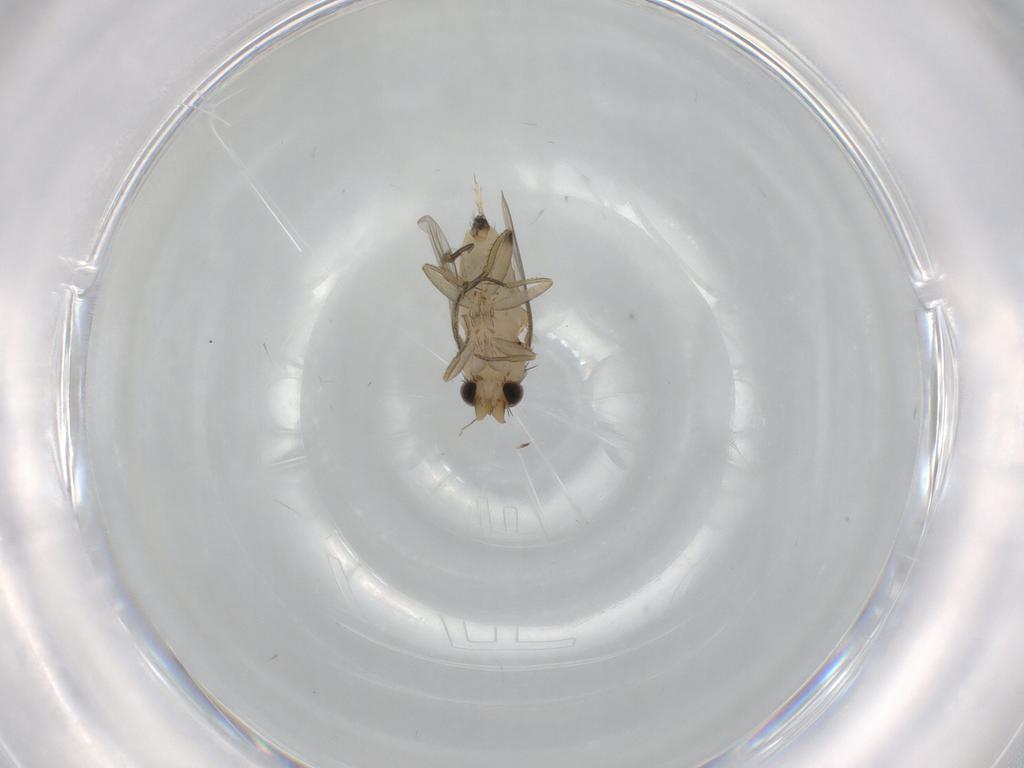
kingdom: Animalia
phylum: Arthropoda
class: Insecta
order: Diptera
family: Phoridae
